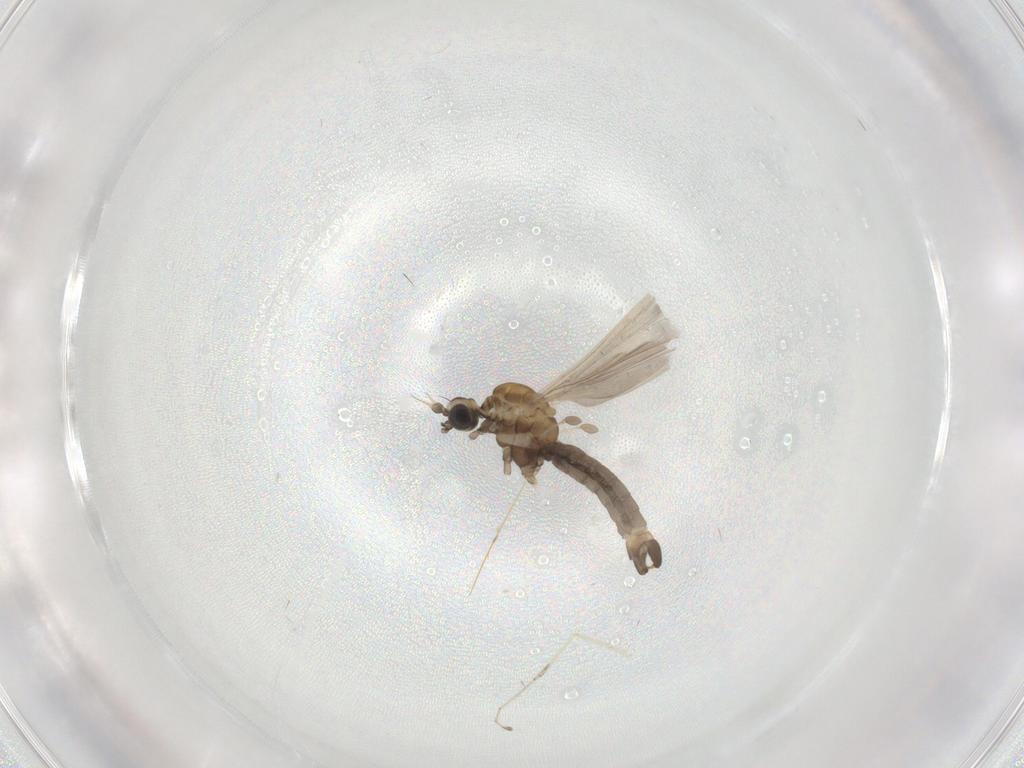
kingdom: Animalia
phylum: Arthropoda
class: Insecta
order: Diptera
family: Limoniidae
